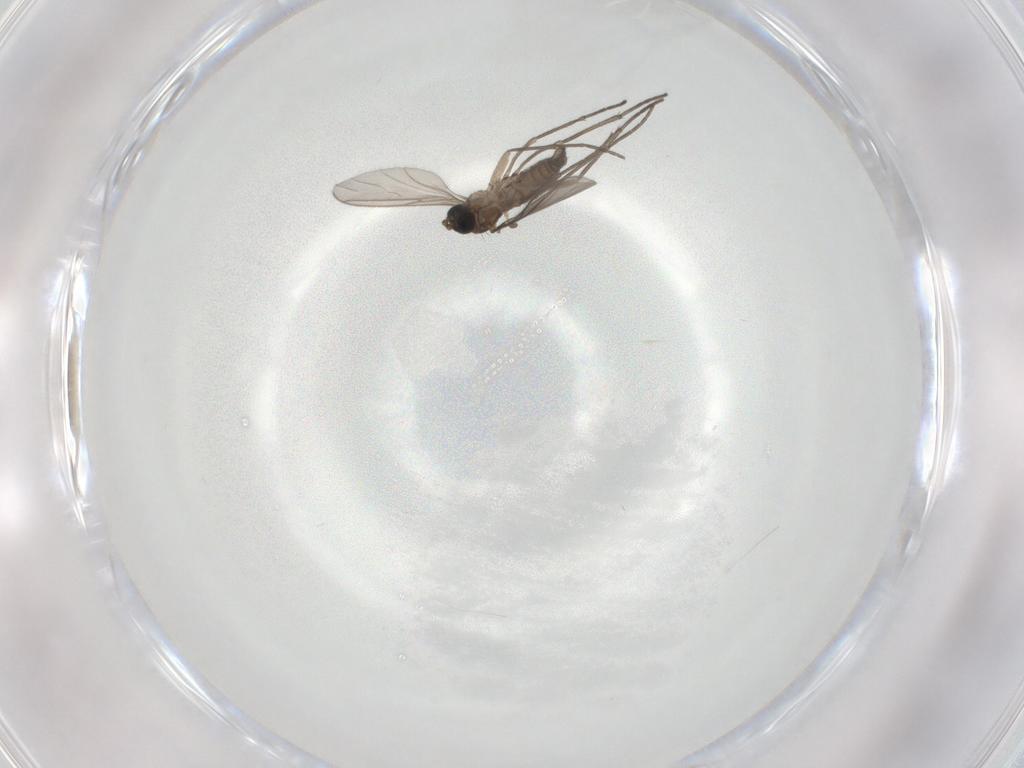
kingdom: Animalia
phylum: Arthropoda
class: Insecta
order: Diptera
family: Sciaridae
